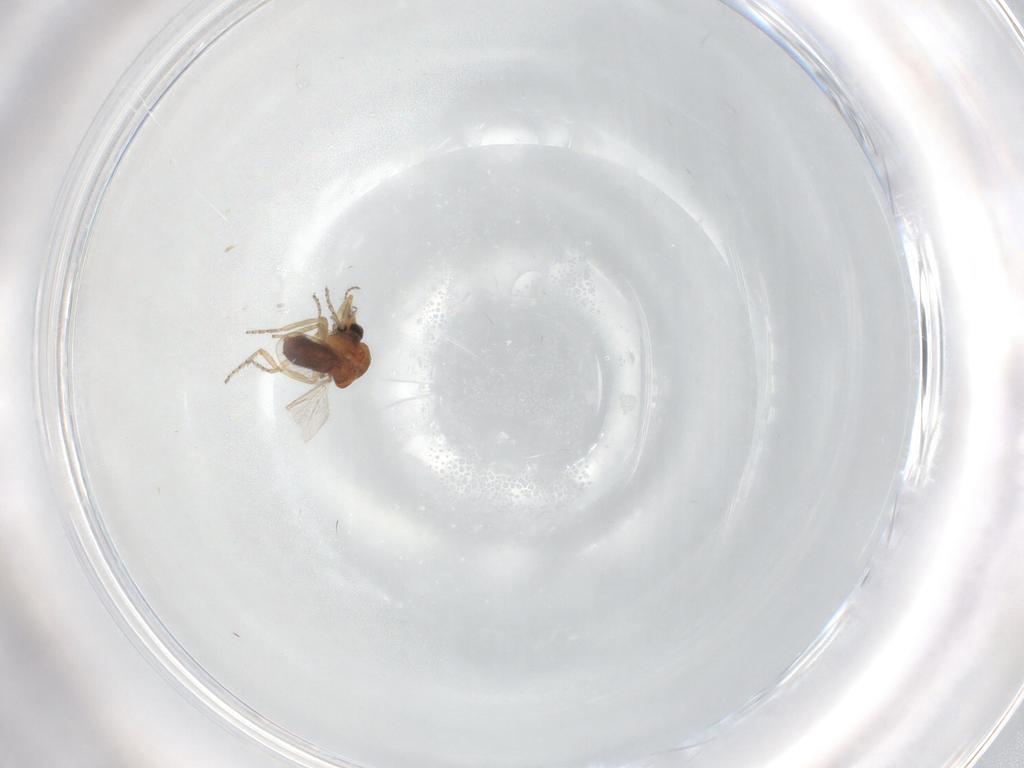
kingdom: Animalia
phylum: Arthropoda
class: Insecta
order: Diptera
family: Ceratopogonidae
